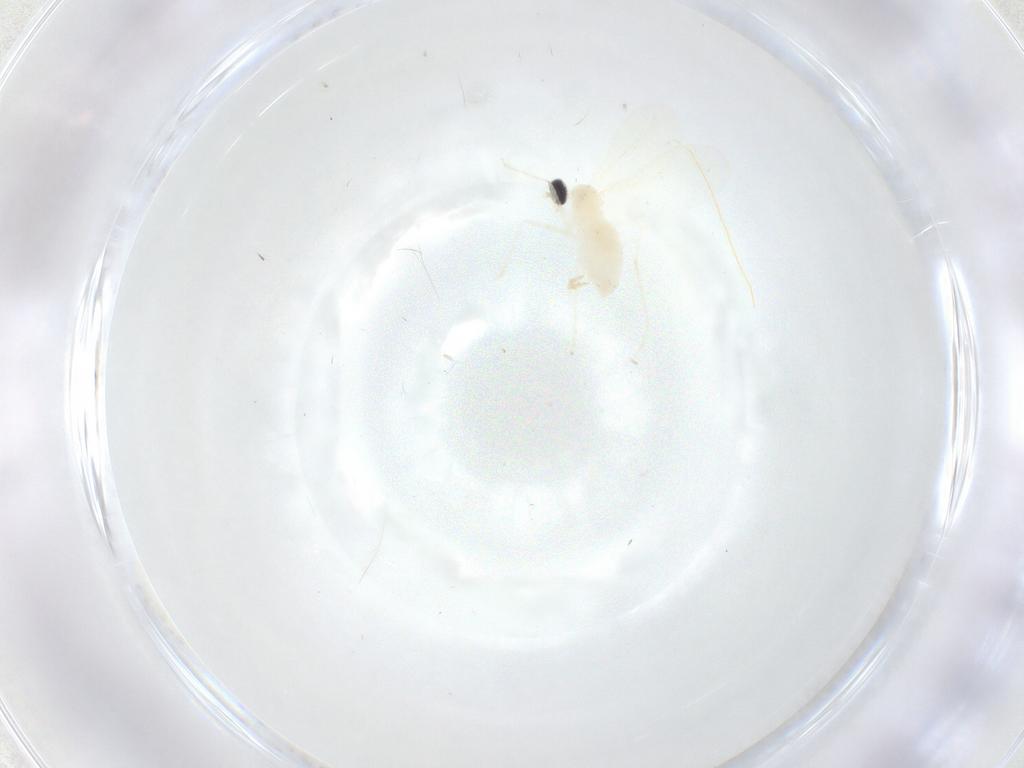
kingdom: Animalia
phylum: Arthropoda
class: Insecta
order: Diptera
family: Cecidomyiidae
